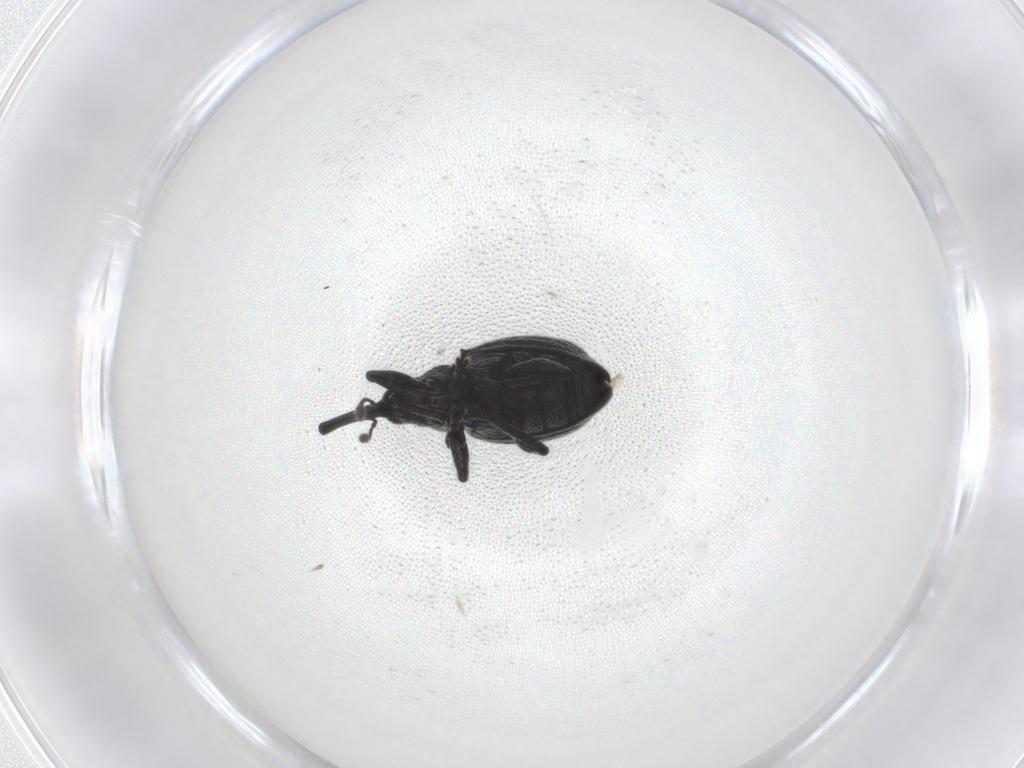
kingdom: Animalia
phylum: Arthropoda
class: Insecta
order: Coleoptera
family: Brentidae
